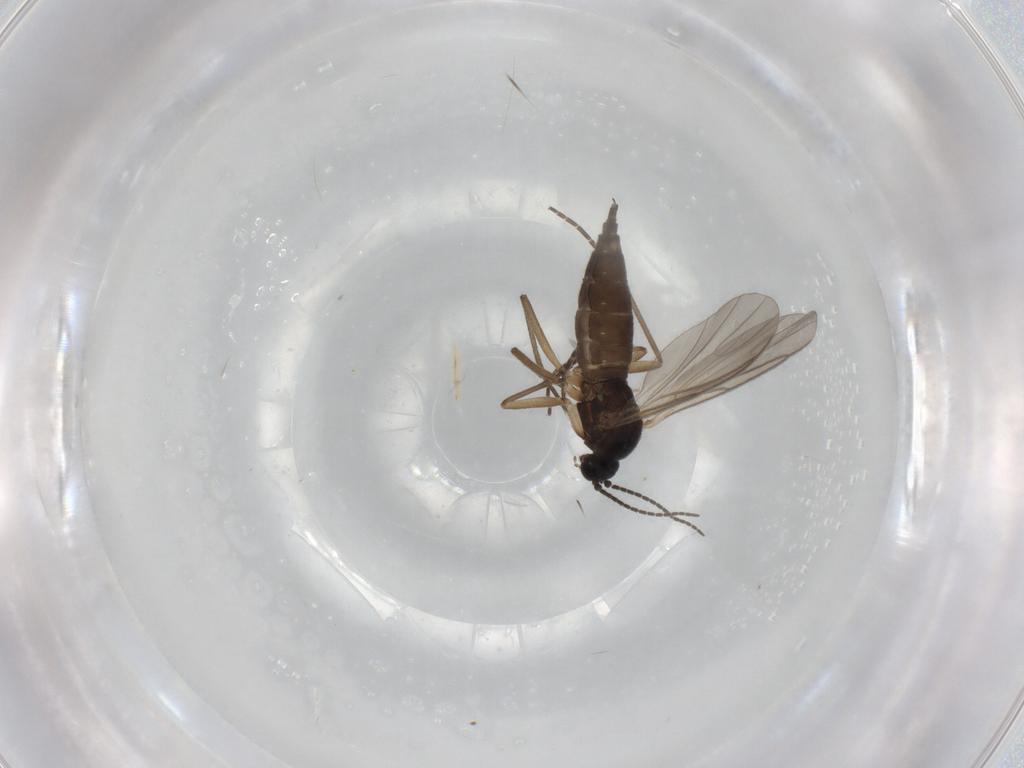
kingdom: Animalia
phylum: Arthropoda
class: Insecta
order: Diptera
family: Sciaridae
